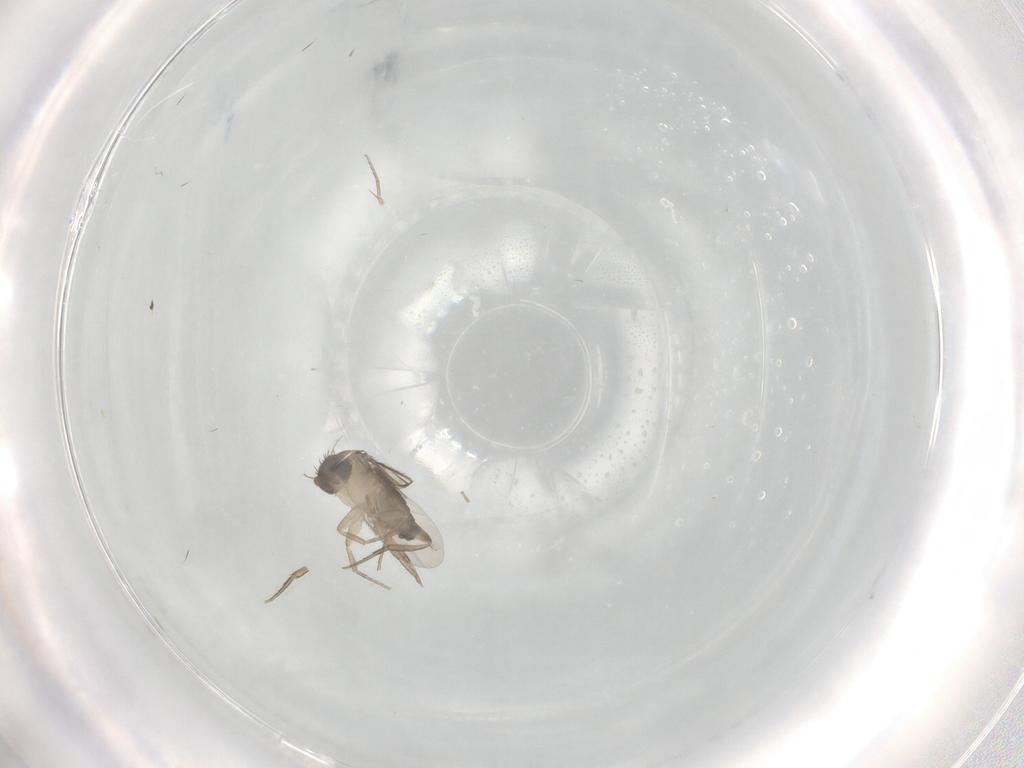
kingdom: Animalia
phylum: Arthropoda
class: Insecta
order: Diptera
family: Phoridae
